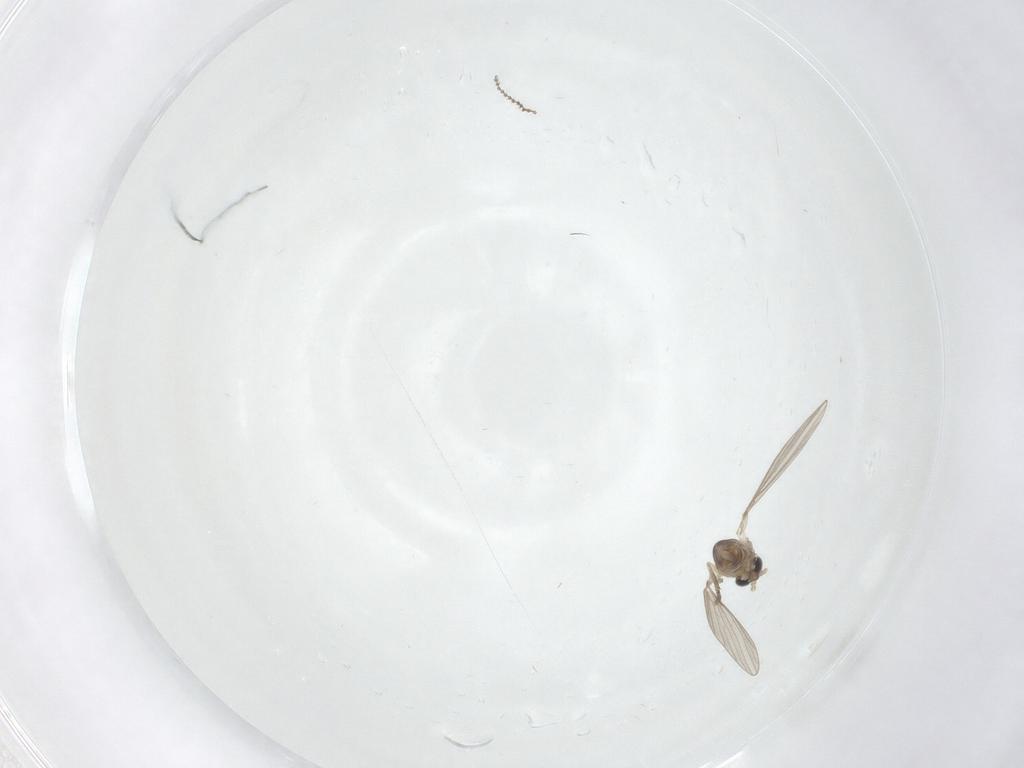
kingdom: Animalia
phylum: Arthropoda
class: Insecta
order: Diptera
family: Cecidomyiidae
